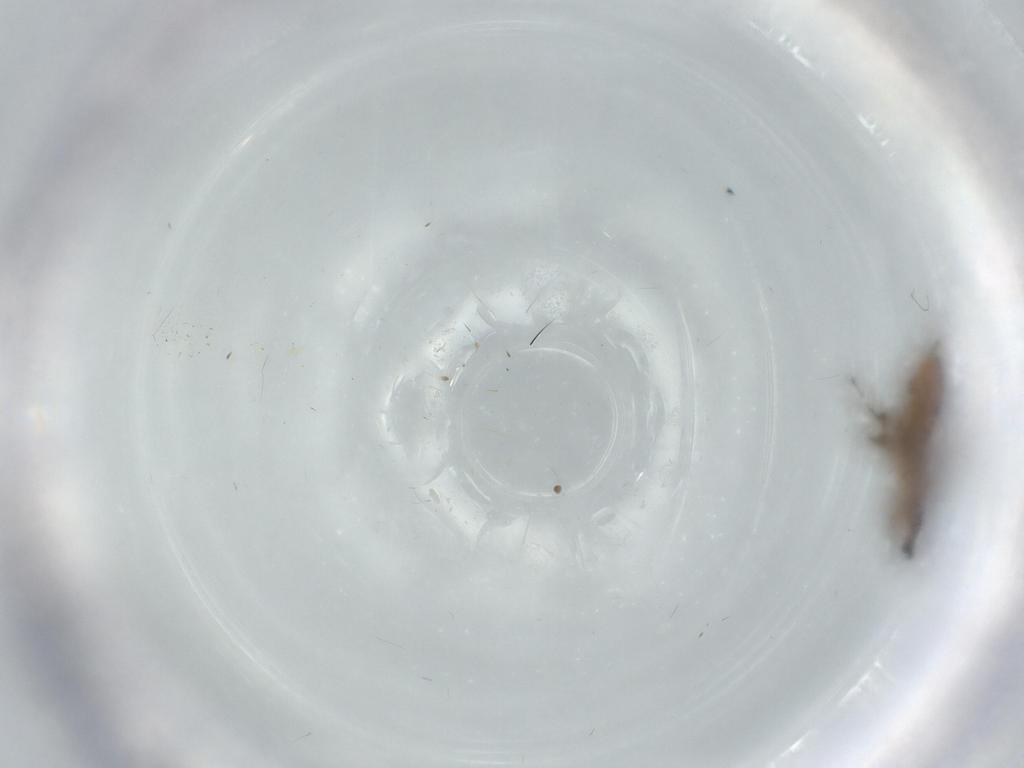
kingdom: Animalia
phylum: Arthropoda
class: Insecta
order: Diptera
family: Sciaridae
